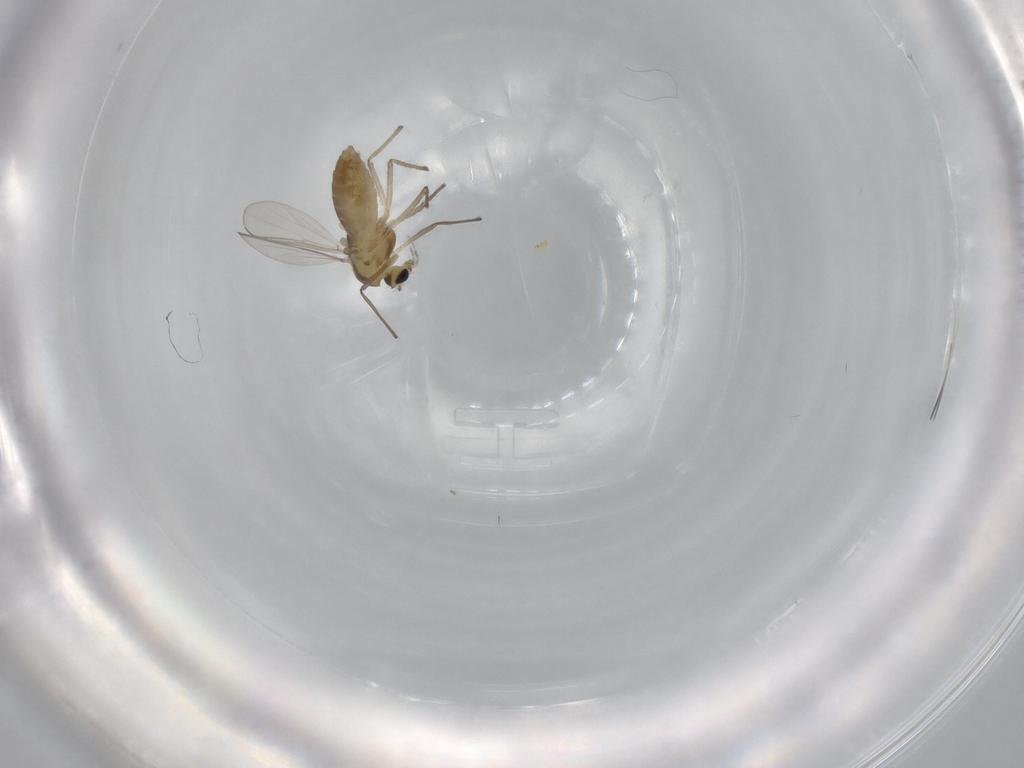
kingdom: Animalia
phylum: Arthropoda
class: Insecta
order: Diptera
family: Chironomidae
